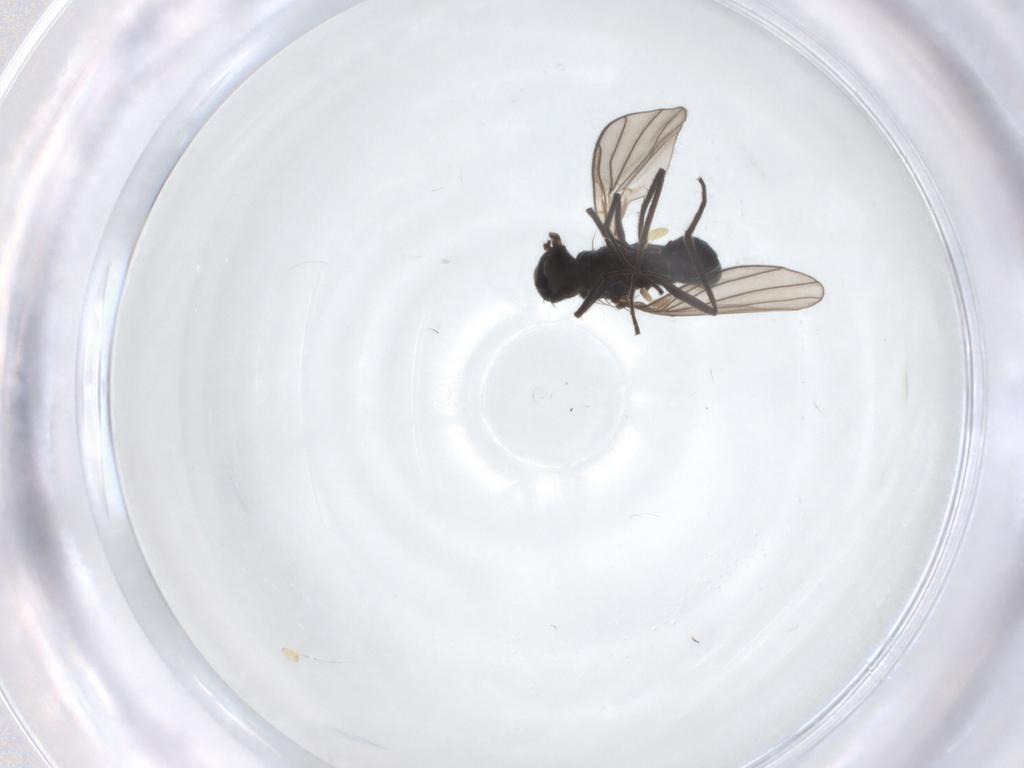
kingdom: Animalia
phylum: Arthropoda
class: Insecta
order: Diptera
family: Dolichopodidae
